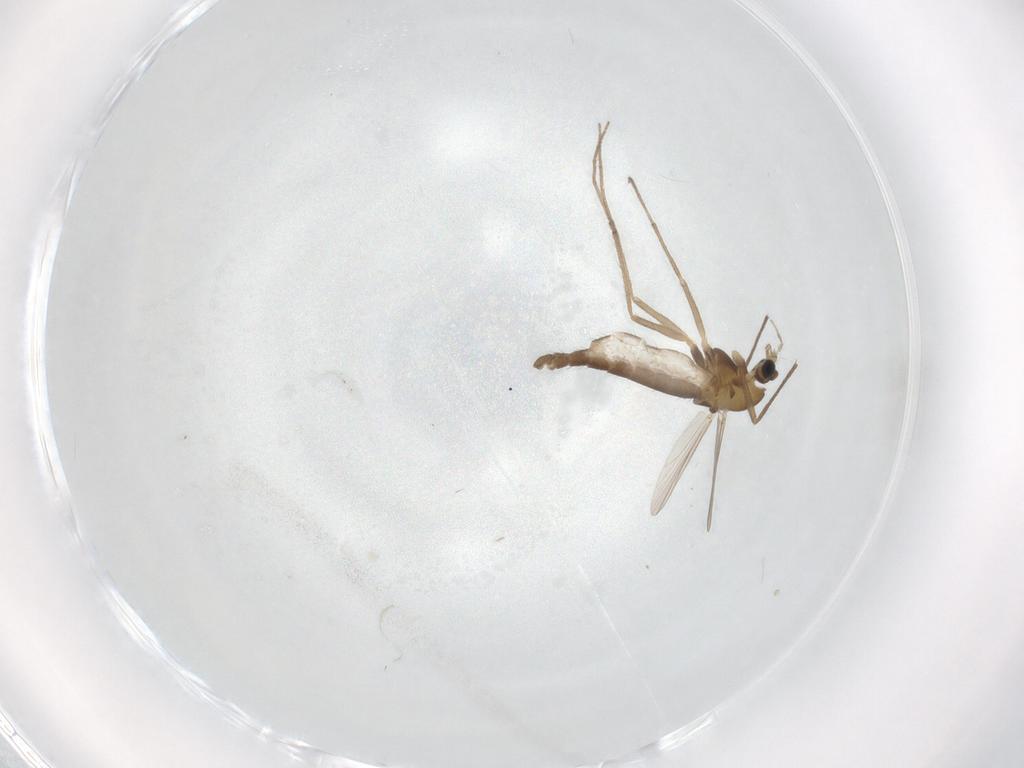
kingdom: Animalia
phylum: Arthropoda
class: Insecta
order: Diptera
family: Chironomidae
